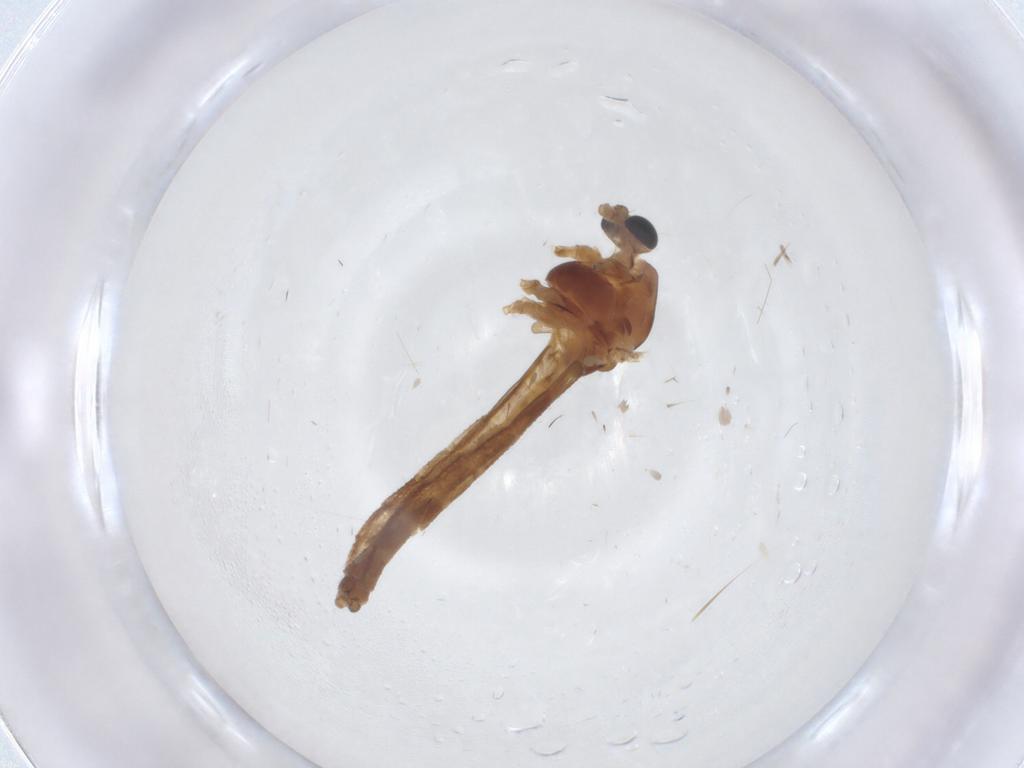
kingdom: Animalia
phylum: Arthropoda
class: Insecta
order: Diptera
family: Chironomidae
